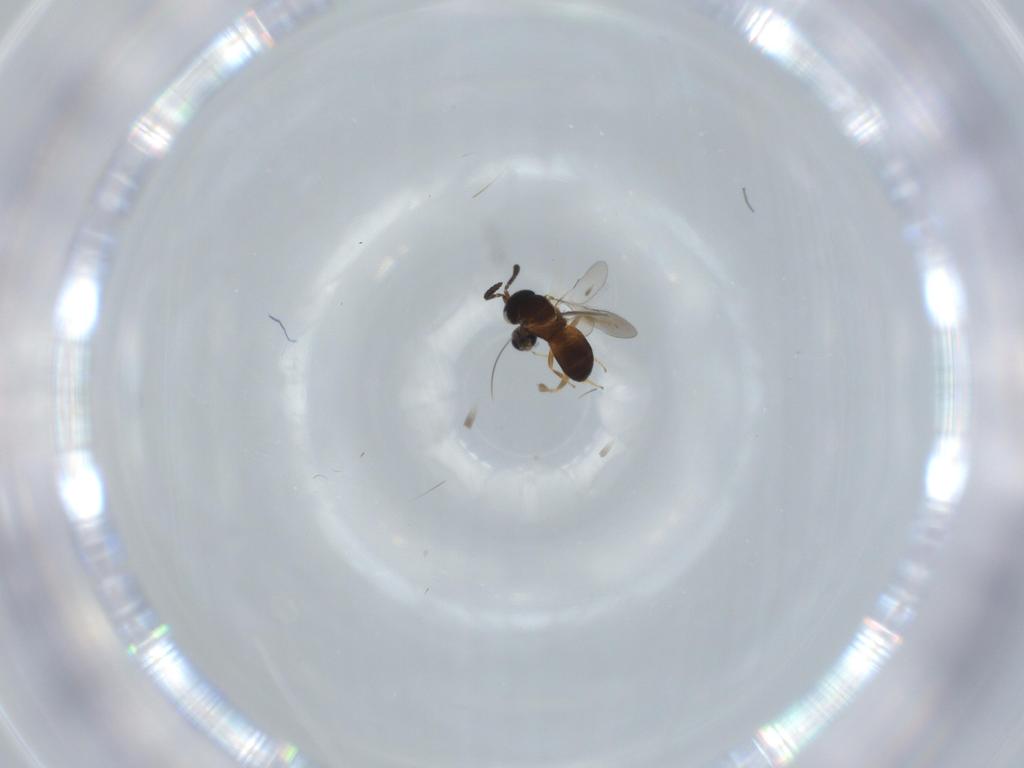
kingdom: Animalia
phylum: Arthropoda
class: Insecta
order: Hymenoptera
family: Scelionidae
